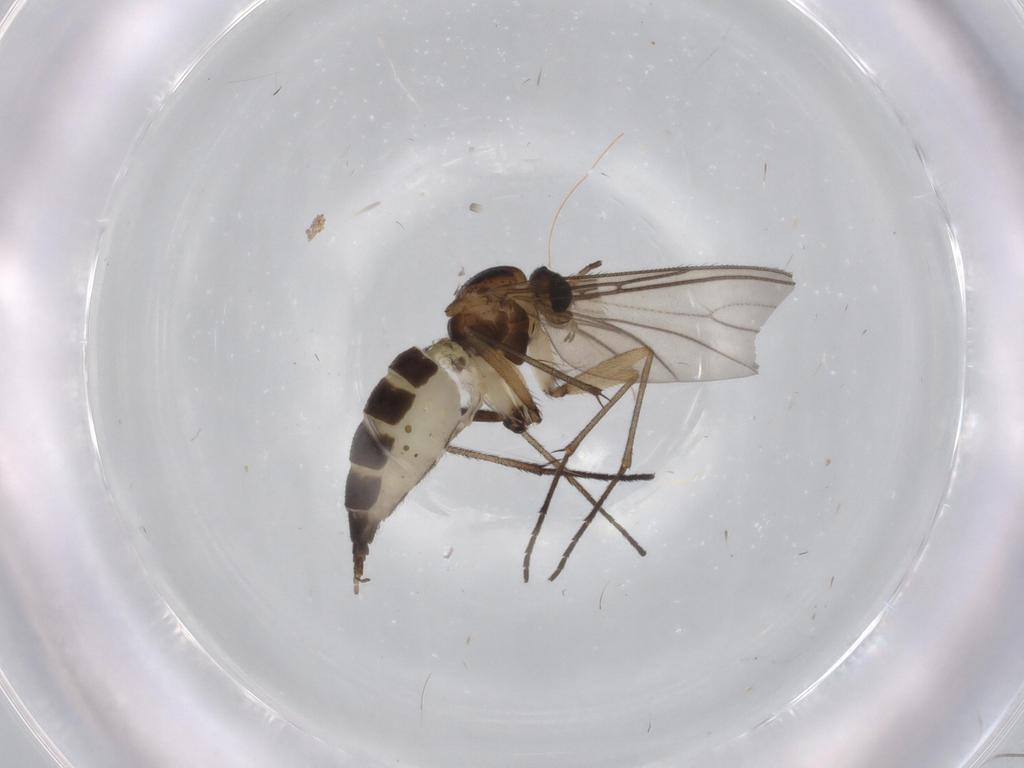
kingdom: Animalia
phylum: Arthropoda
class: Insecta
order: Diptera
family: Sciaridae
